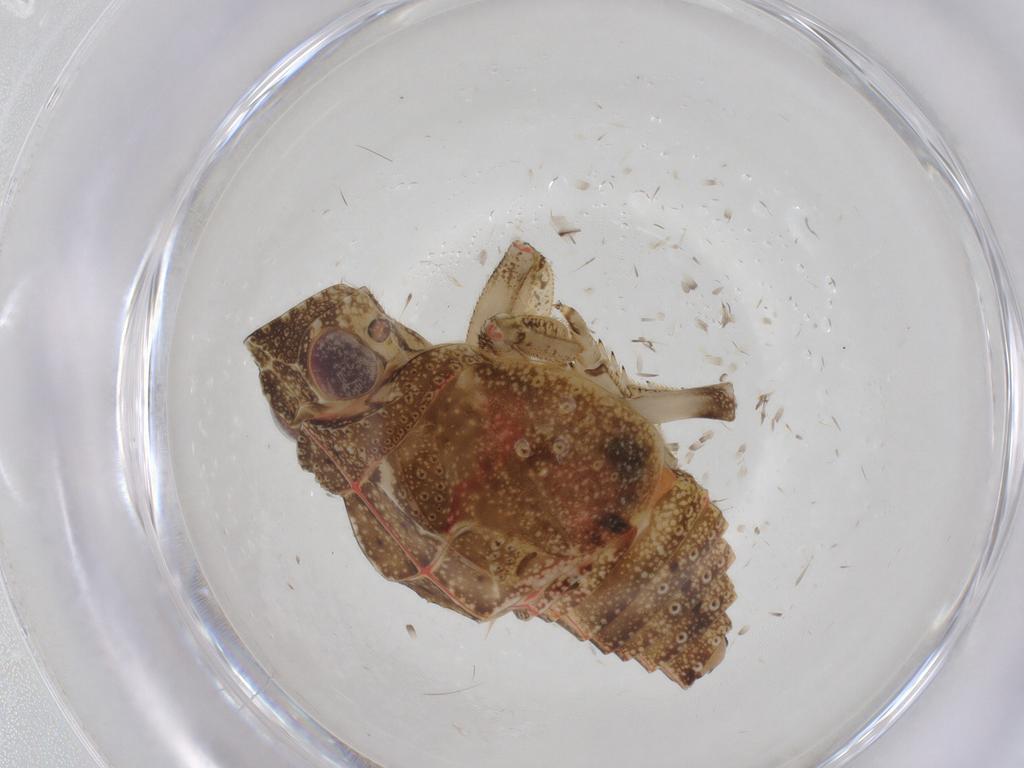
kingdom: Animalia
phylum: Arthropoda
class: Insecta
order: Hemiptera
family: Nogodinidae
